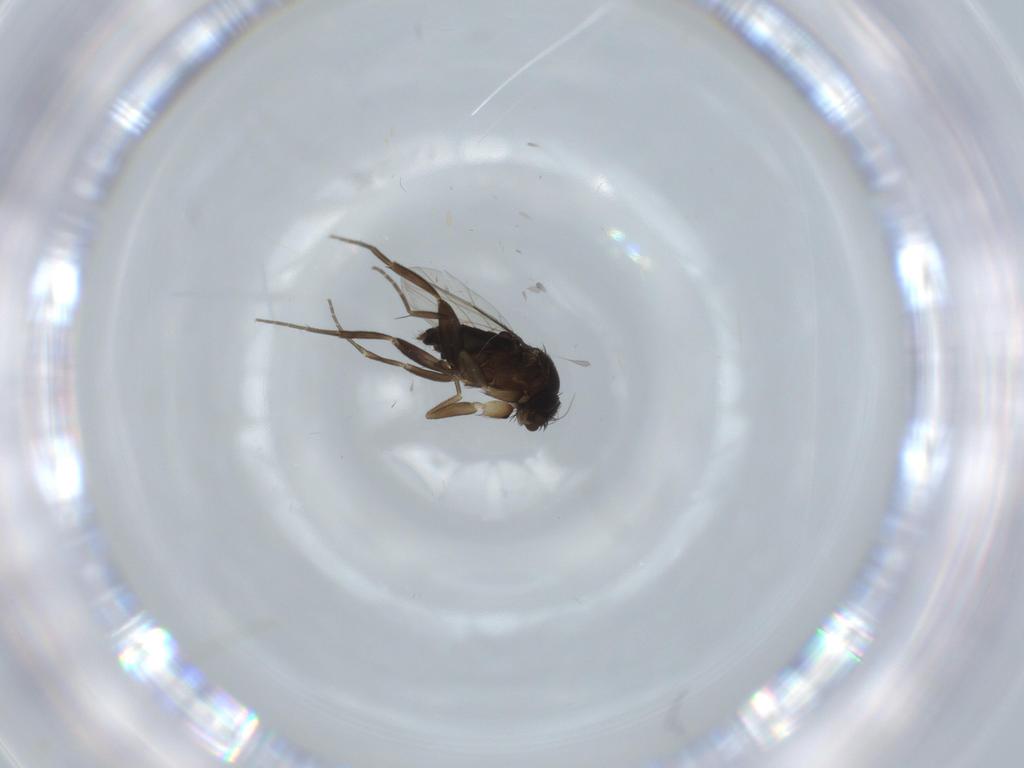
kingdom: Animalia
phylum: Arthropoda
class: Insecta
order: Diptera
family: Phoridae
